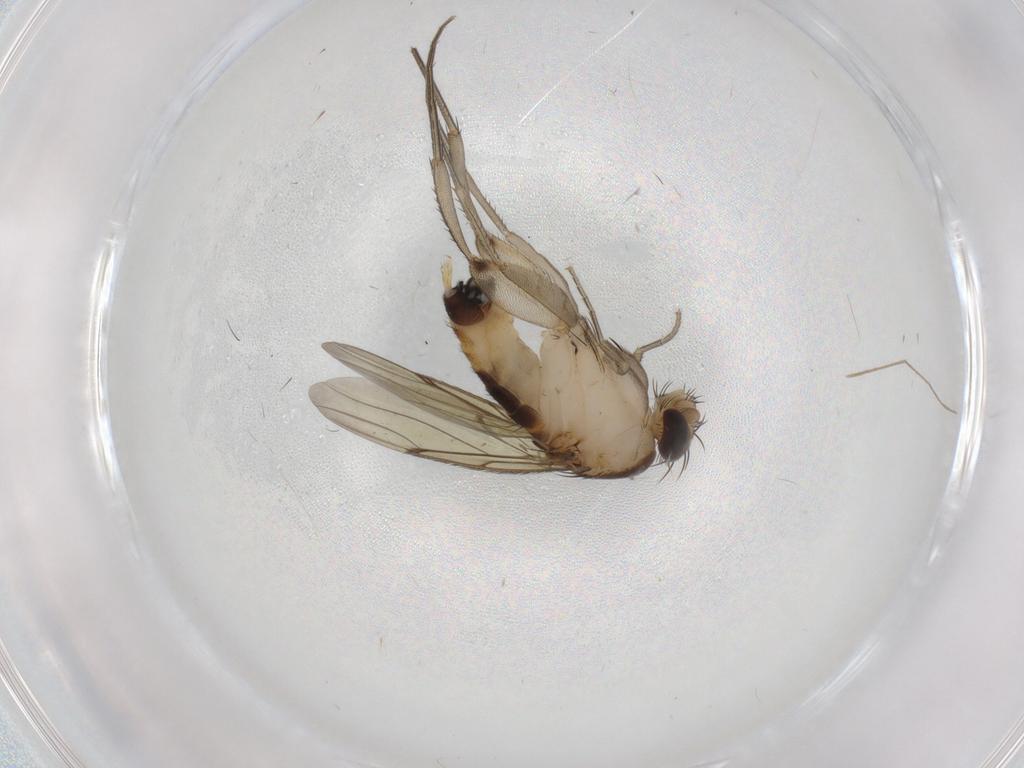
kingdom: Animalia
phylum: Arthropoda
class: Insecta
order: Diptera
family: Phoridae
